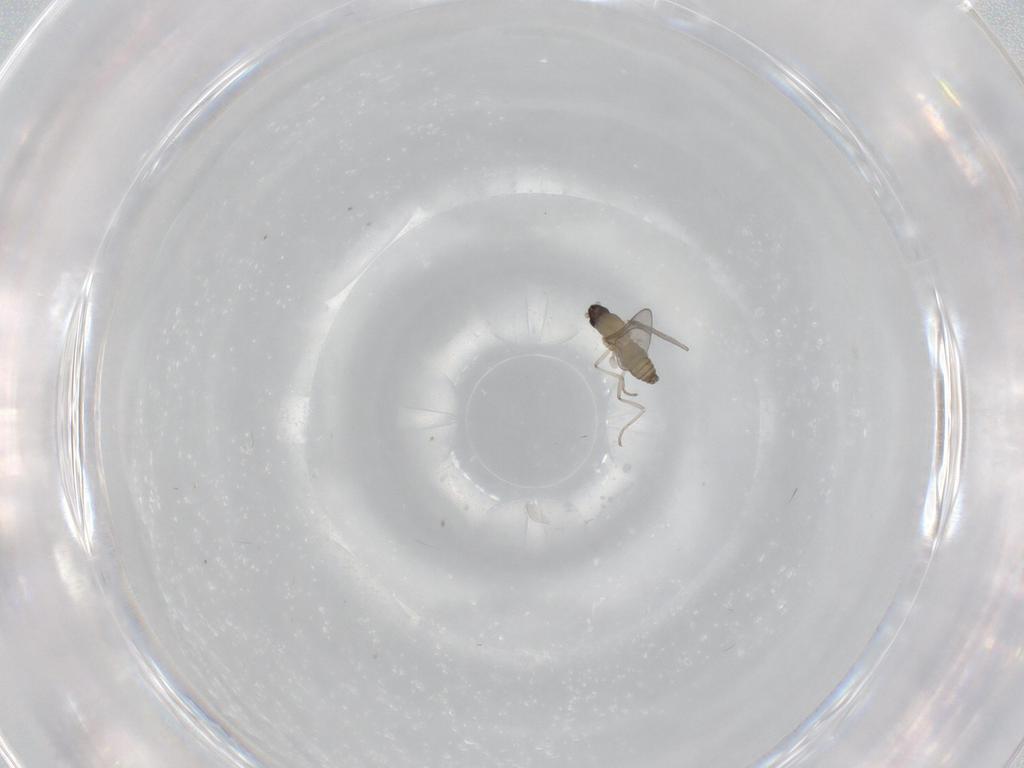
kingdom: Animalia
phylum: Arthropoda
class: Insecta
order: Diptera
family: Cecidomyiidae
